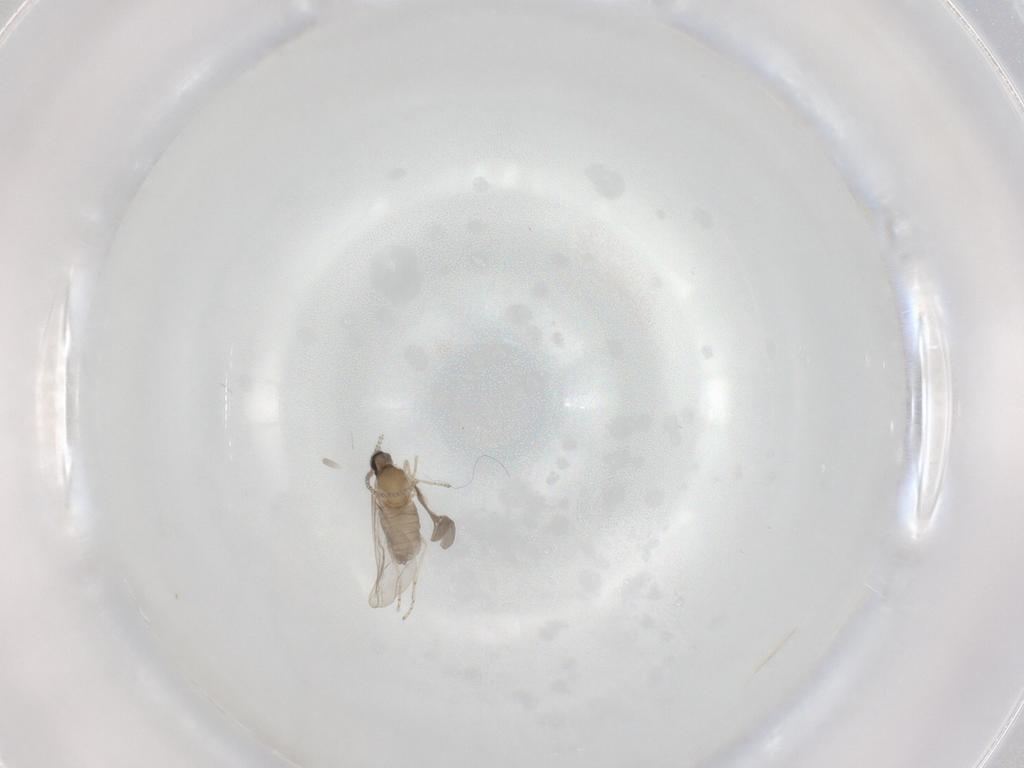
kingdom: Animalia
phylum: Arthropoda
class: Insecta
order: Diptera
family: Cecidomyiidae
